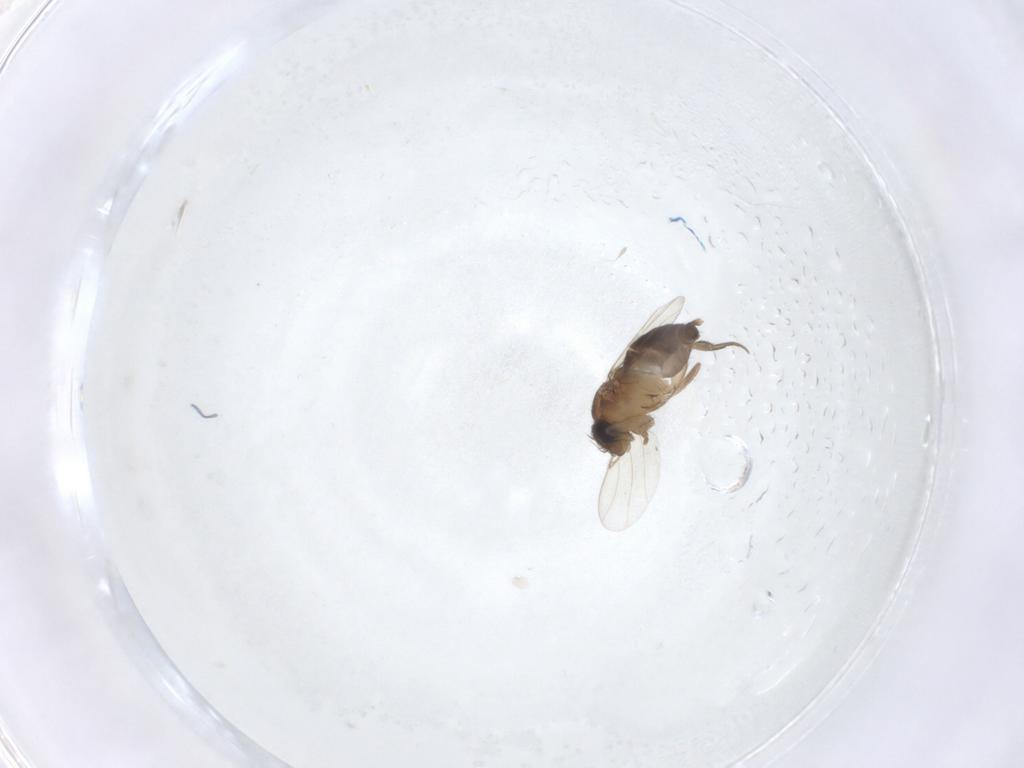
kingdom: Animalia
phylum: Arthropoda
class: Insecta
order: Diptera
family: Phoridae
